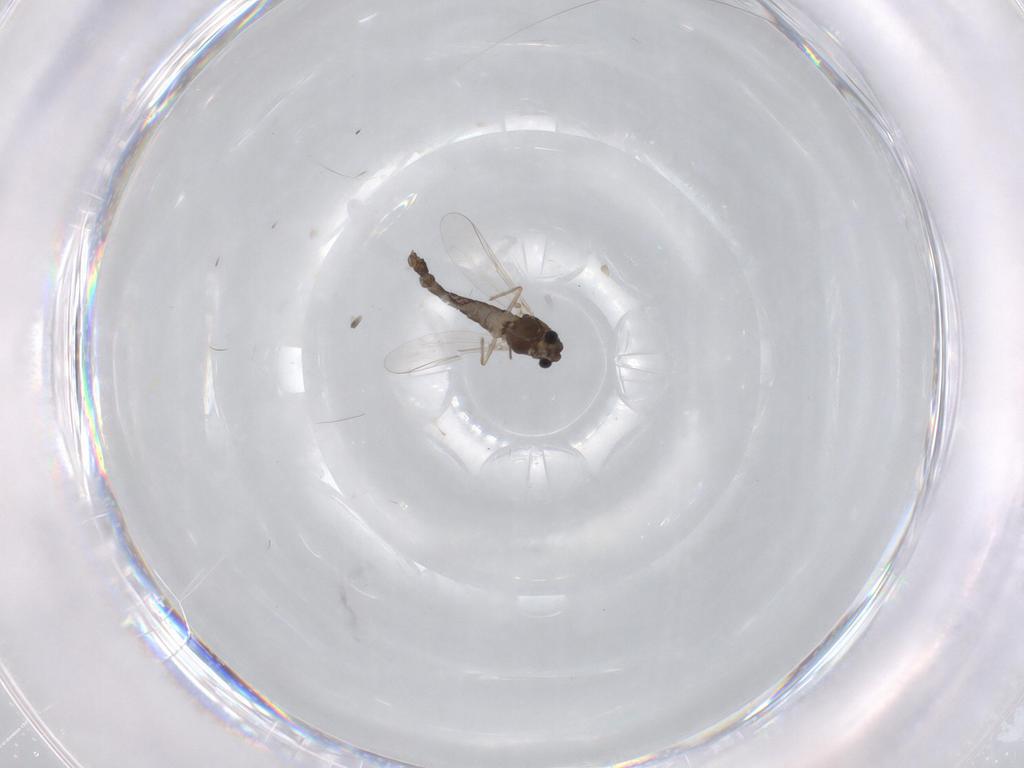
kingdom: Animalia
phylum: Arthropoda
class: Insecta
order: Diptera
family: Cecidomyiidae
